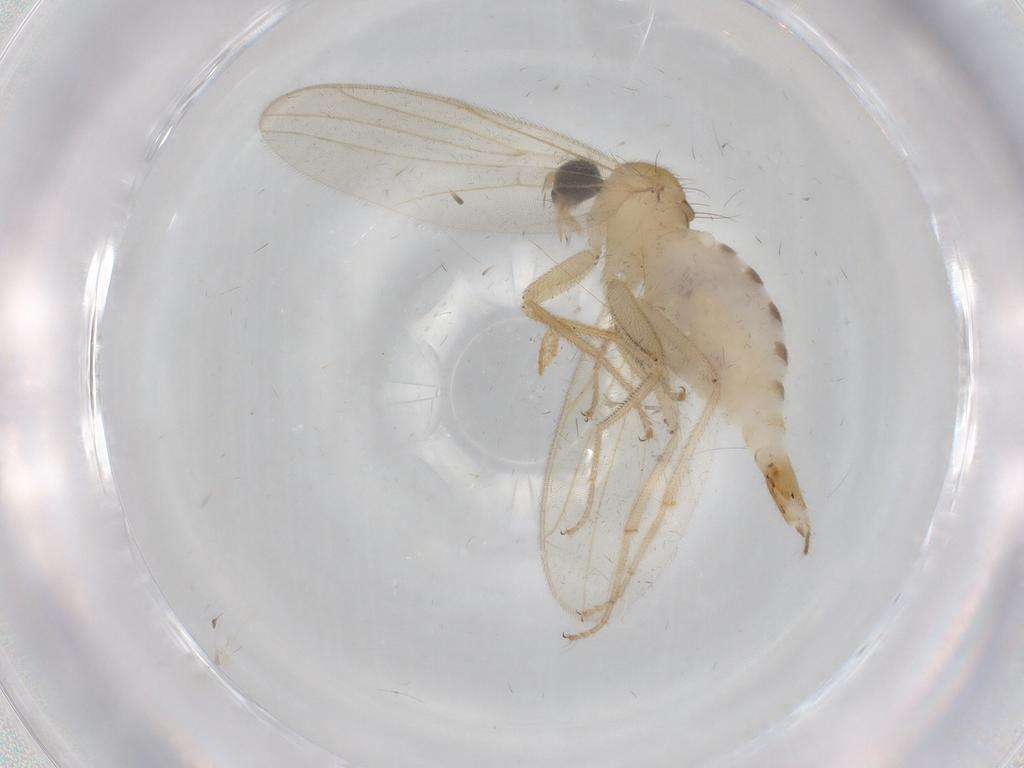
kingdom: Animalia
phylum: Arthropoda
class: Insecta
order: Diptera
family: Hybotidae
